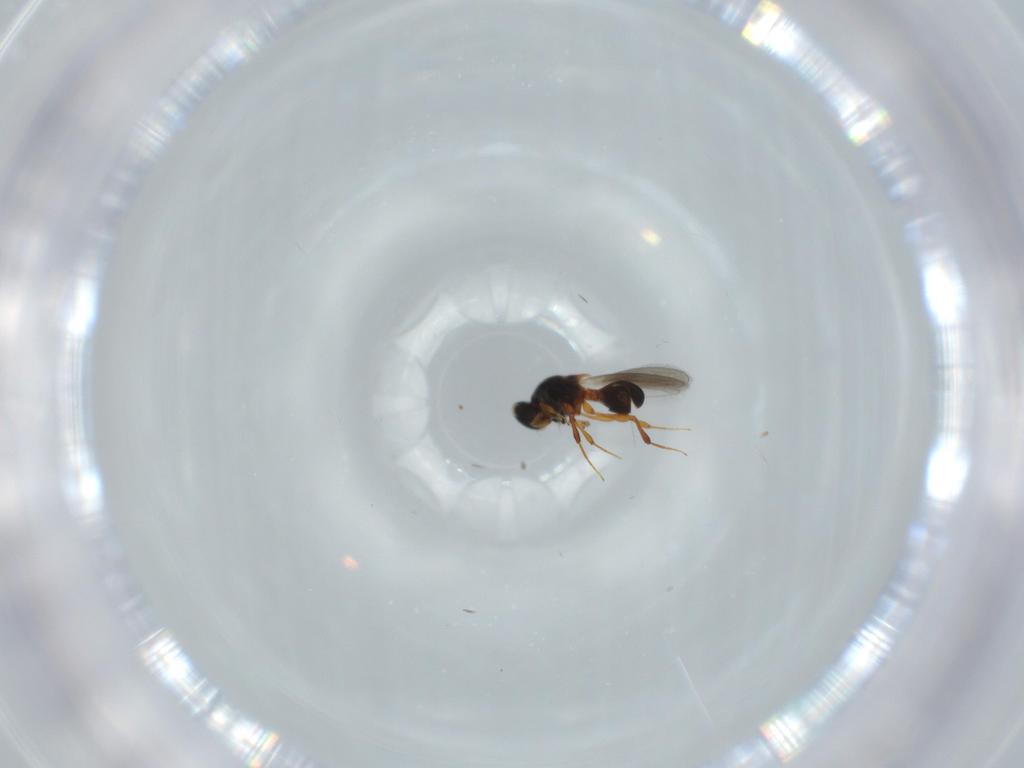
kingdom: Animalia
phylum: Arthropoda
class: Insecta
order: Hymenoptera
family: Platygastridae
